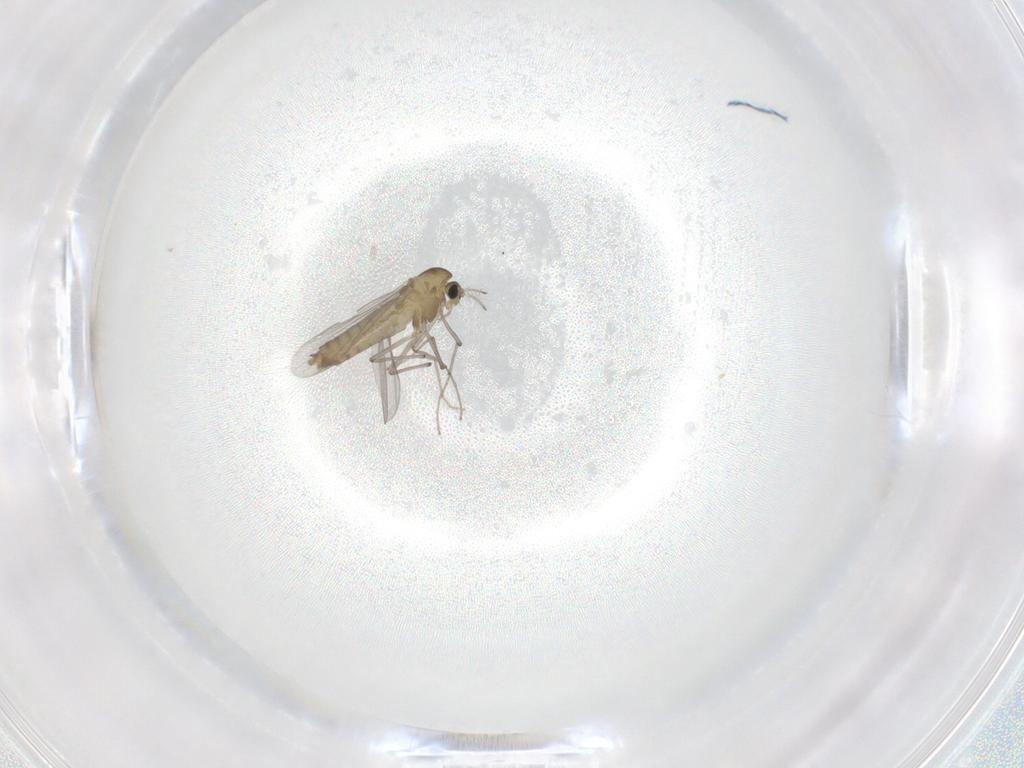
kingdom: Animalia
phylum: Arthropoda
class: Insecta
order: Diptera
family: Chironomidae
